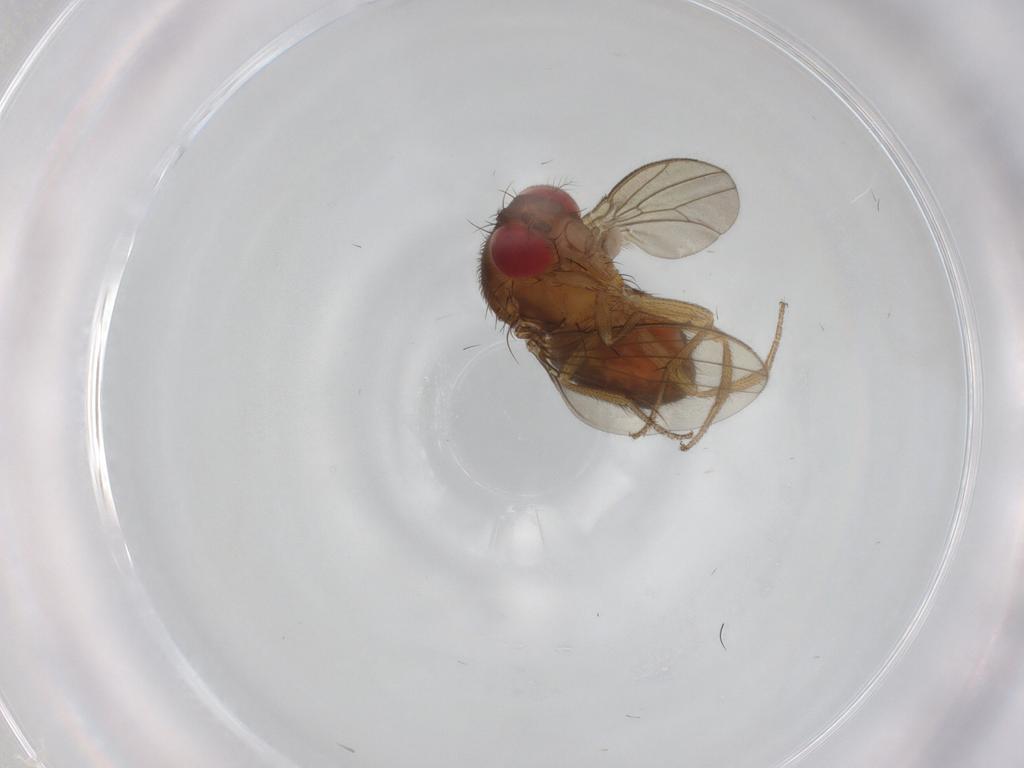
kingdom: Animalia
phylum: Arthropoda
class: Insecta
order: Diptera
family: Drosophilidae
